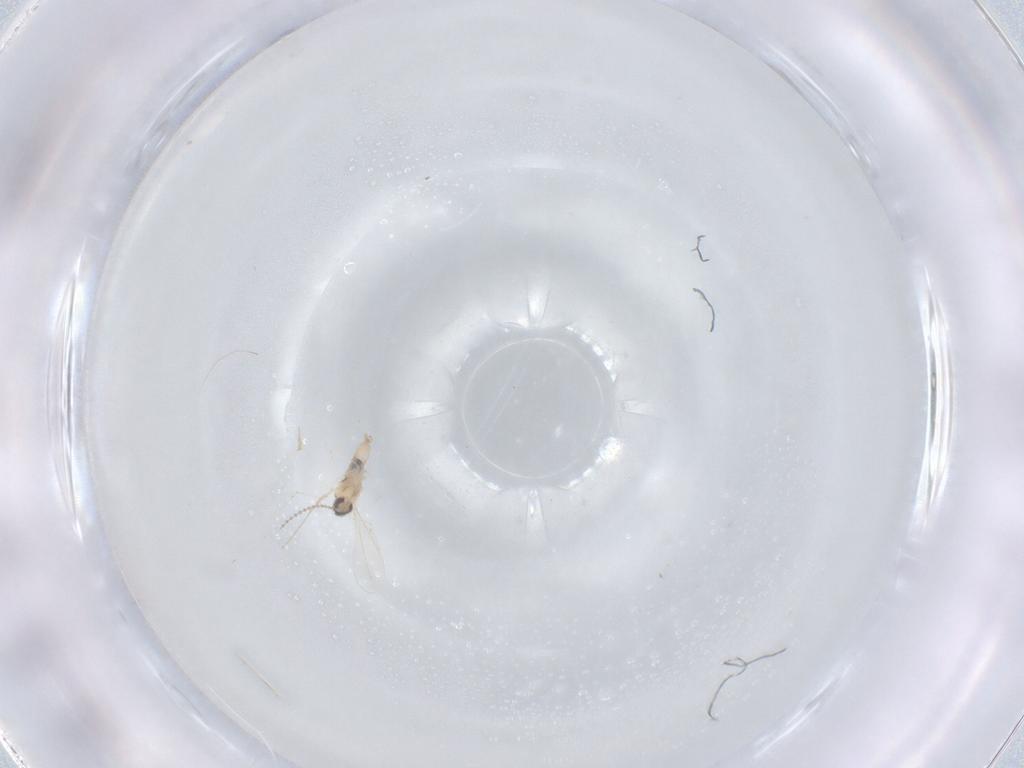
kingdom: Animalia
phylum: Arthropoda
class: Insecta
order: Diptera
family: Cecidomyiidae
